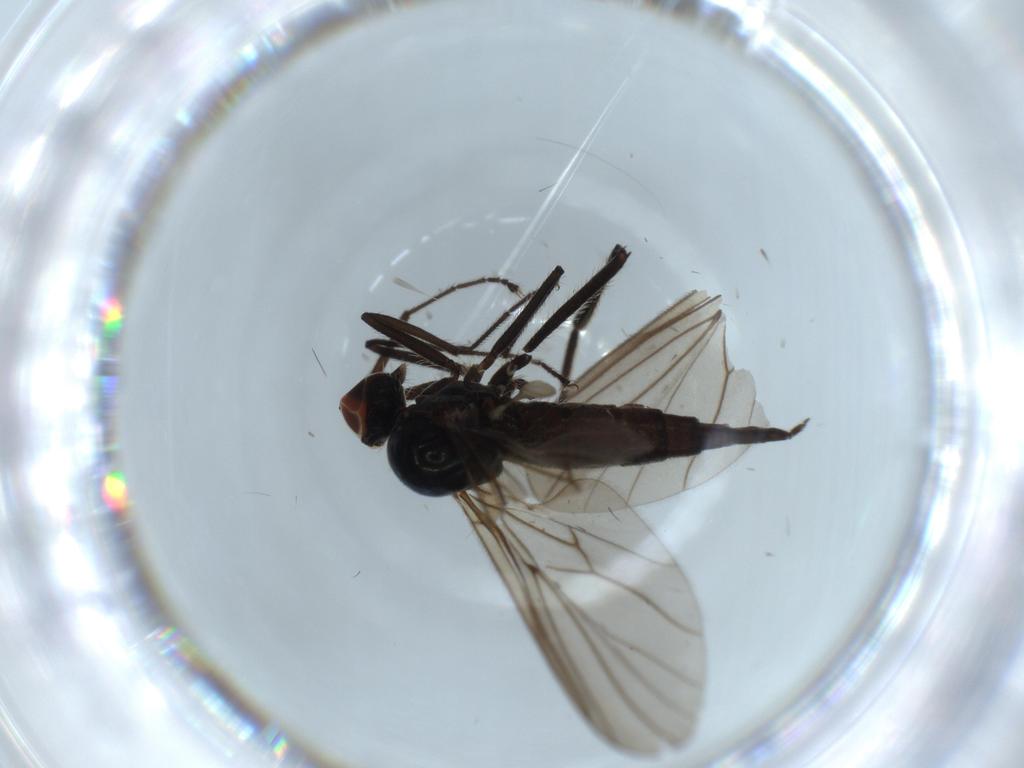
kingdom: Animalia
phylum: Arthropoda
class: Insecta
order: Diptera
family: Hybotidae
